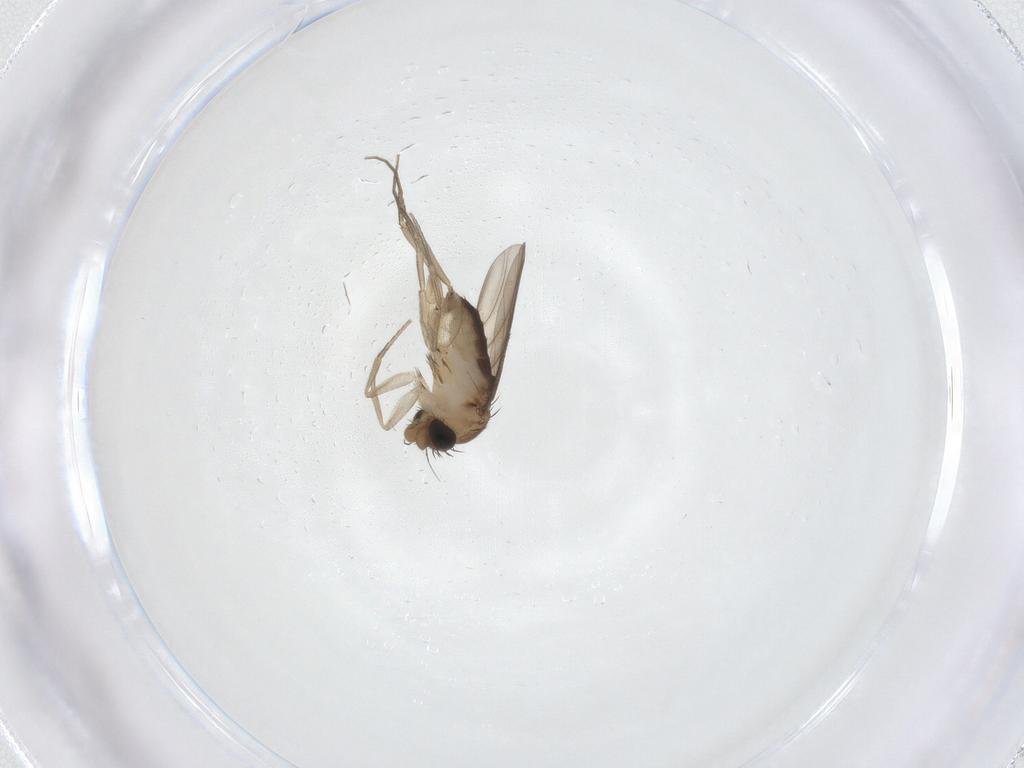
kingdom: Animalia
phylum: Arthropoda
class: Insecta
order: Diptera
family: Phoridae
